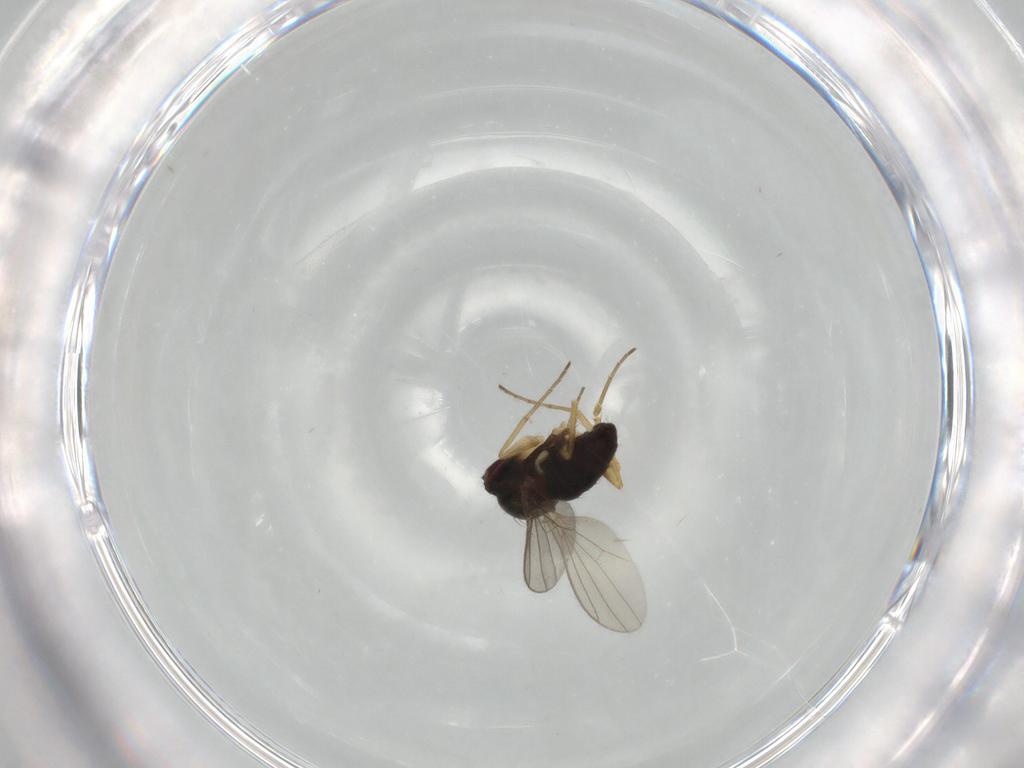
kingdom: Animalia
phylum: Arthropoda
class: Insecta
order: Diptera
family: Dolichopodidae
